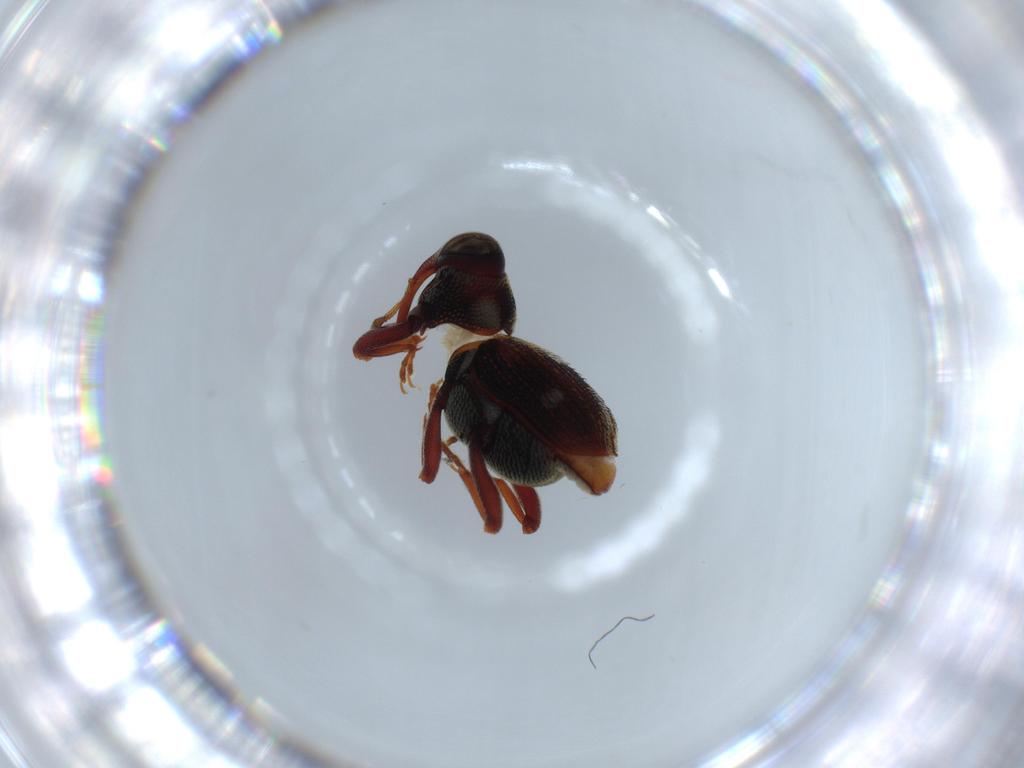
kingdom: Animalia
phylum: Arthropoda
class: Insecta
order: Coleoptera
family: Curculionidae
